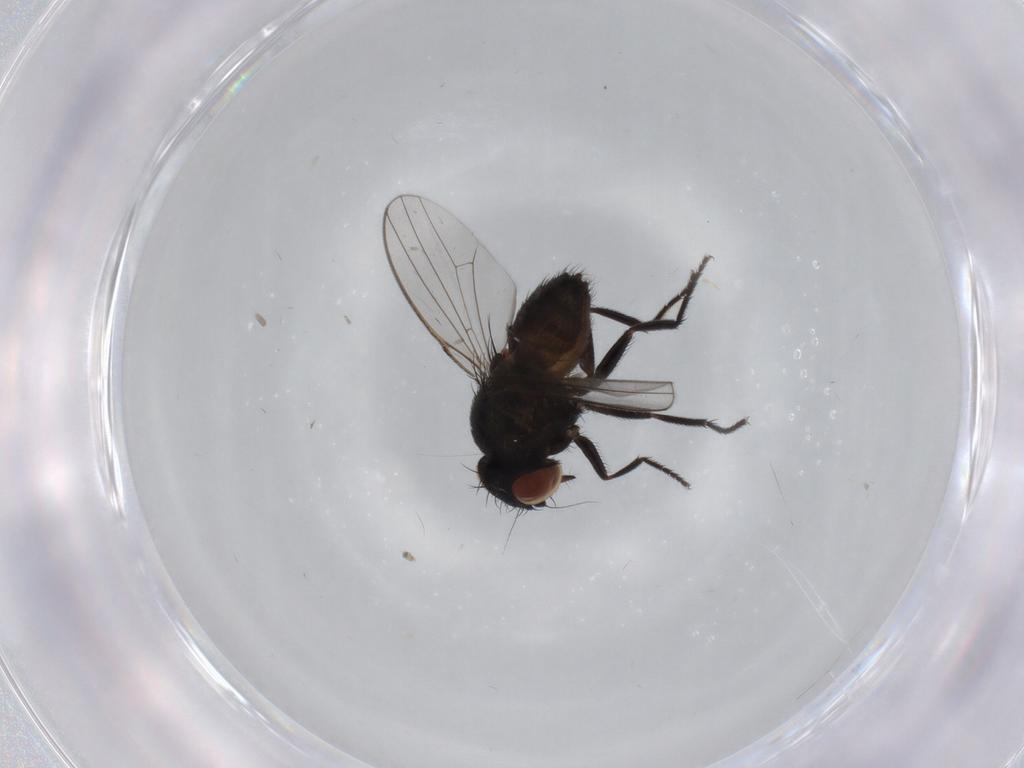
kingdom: Animalia
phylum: Arthropoda
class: Insecta
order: Diptera
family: Milichiidae
